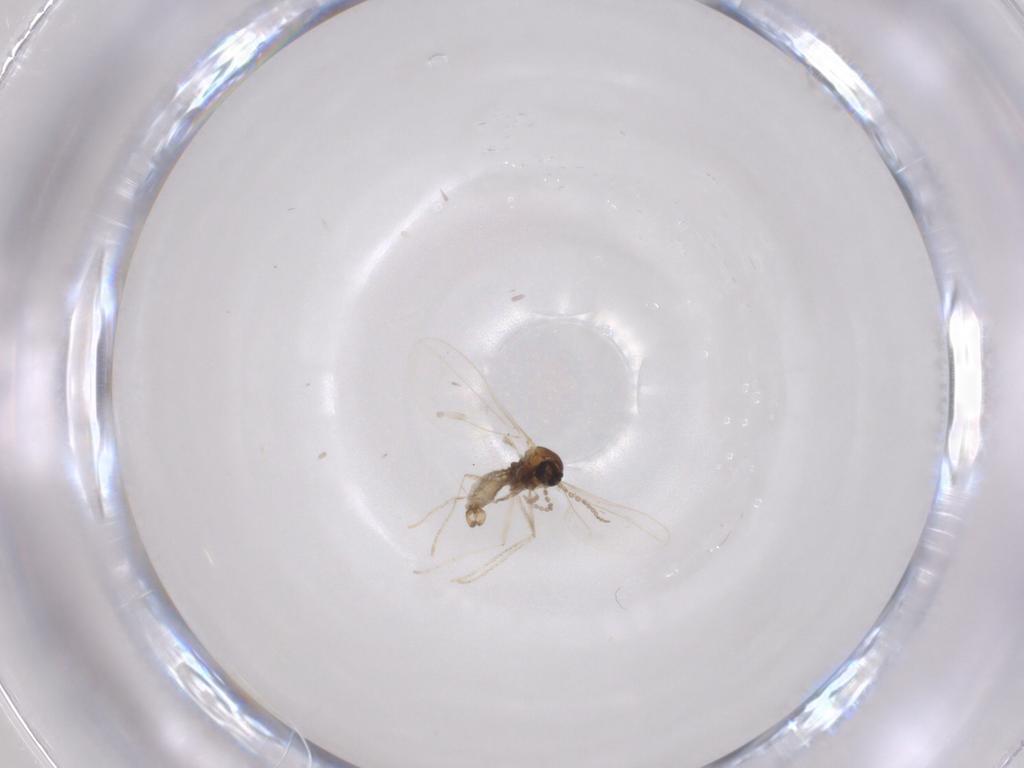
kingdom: Animalia
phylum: Arthropoda
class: Insecta
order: Diptera
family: Cecidomyiidae
